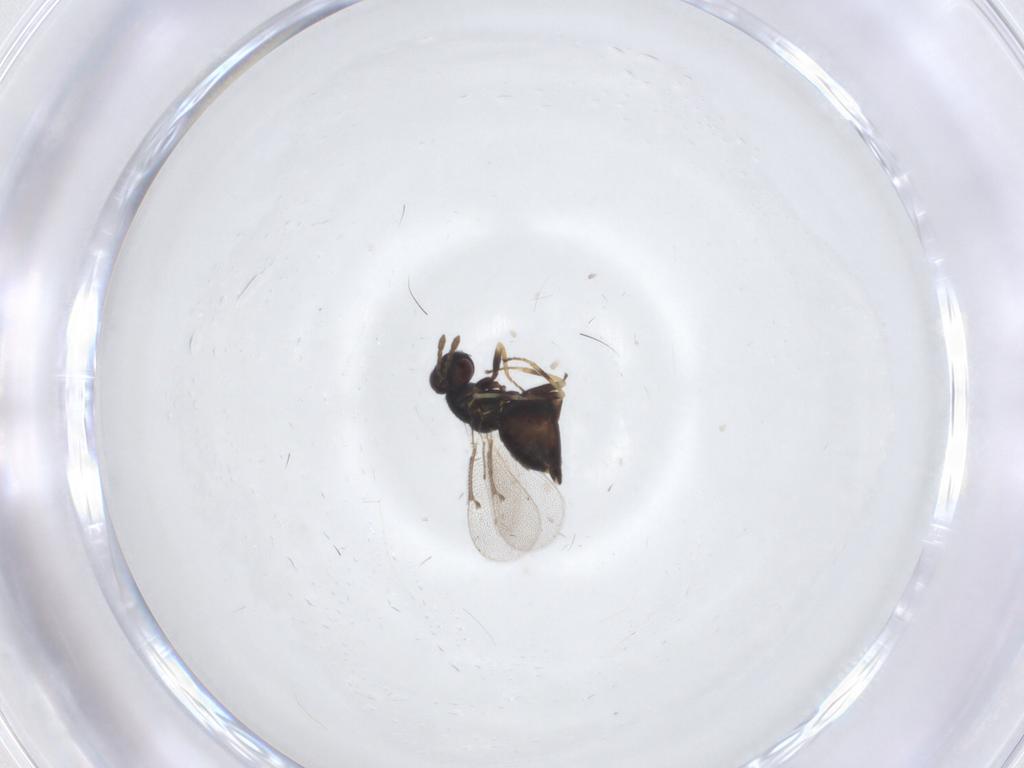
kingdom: Animalia
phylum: Arthropoda
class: Insecta
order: Hymenoptera
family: Eulophidae
